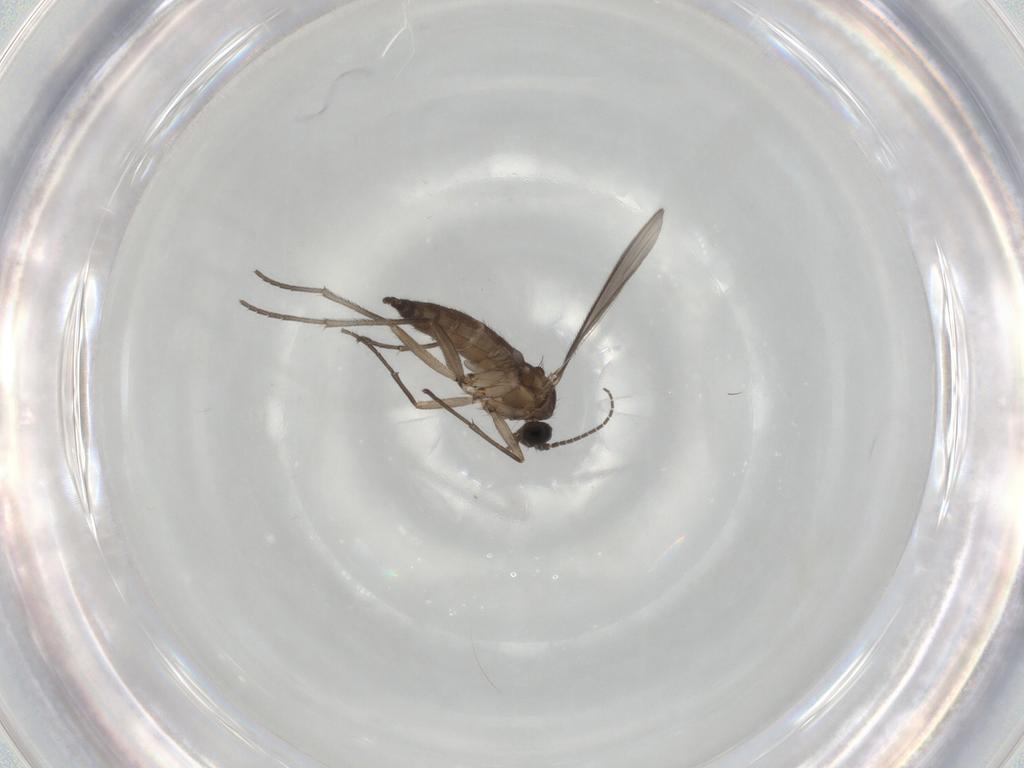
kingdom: Animalia
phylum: Arthropoda
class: Insecta
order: Diptera
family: Sciaridae
